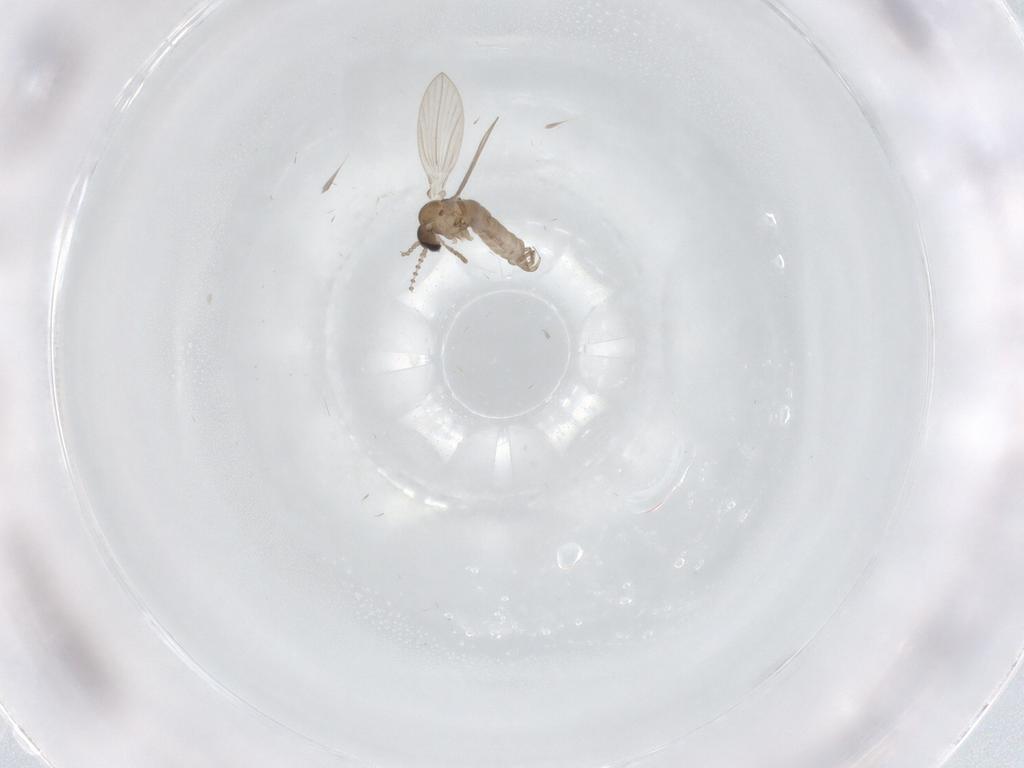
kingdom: Animalia
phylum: Arthropoda
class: Insecta
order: Diptera
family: Psychodidae
